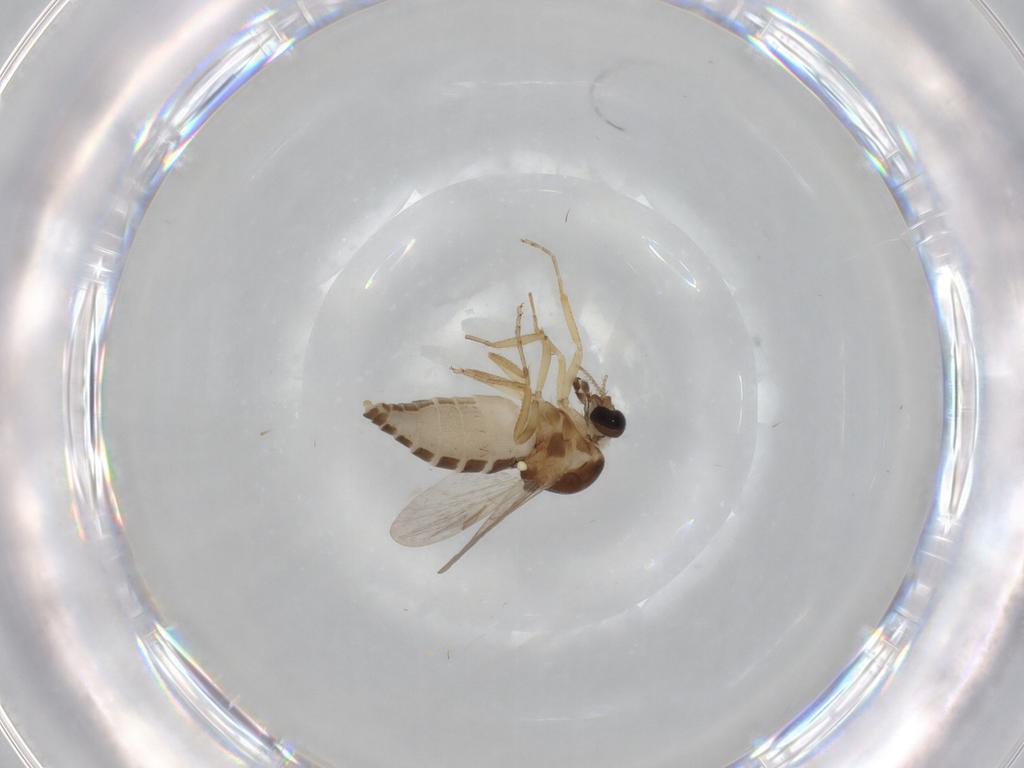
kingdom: Animalia
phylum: Arthropoda
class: Insecta
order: Diptera
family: Ceratopogonidae
